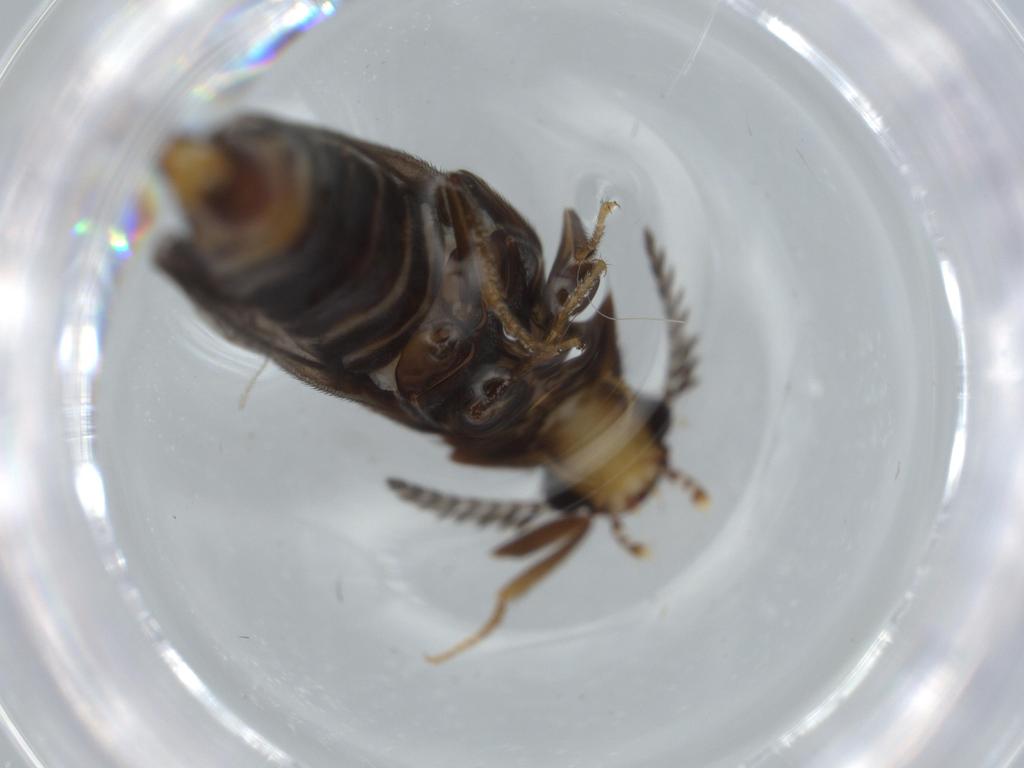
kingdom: Animalia
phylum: Arthropoda
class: Insecta
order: Coleoptera
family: Phengodidae
